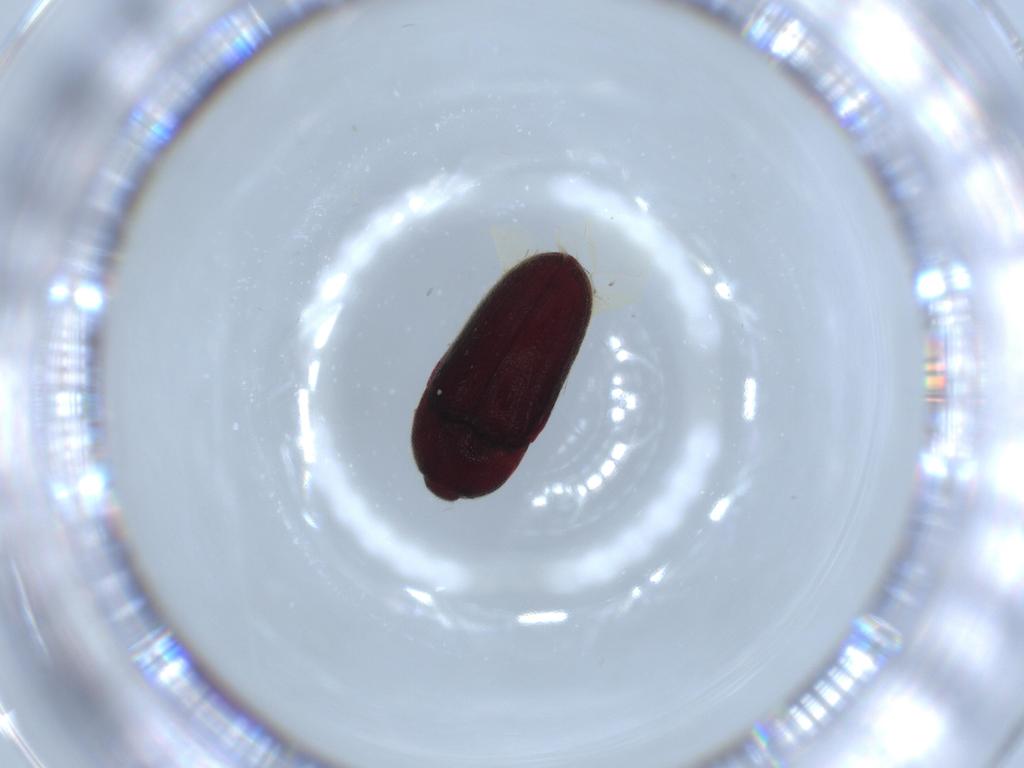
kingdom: Animalia
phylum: Arthropoda
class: Insecta
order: Coleoptera
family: Throscidae
